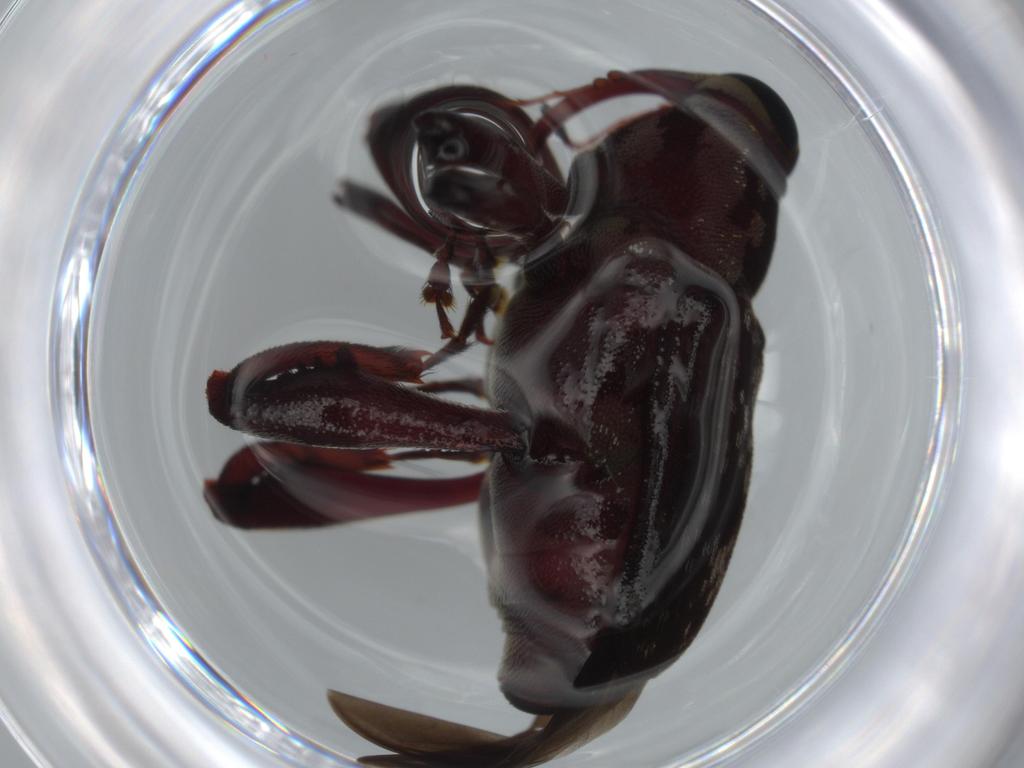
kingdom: Animalia
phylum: Arthropoda
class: Insecta
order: Coleoptera
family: Curculionidae
